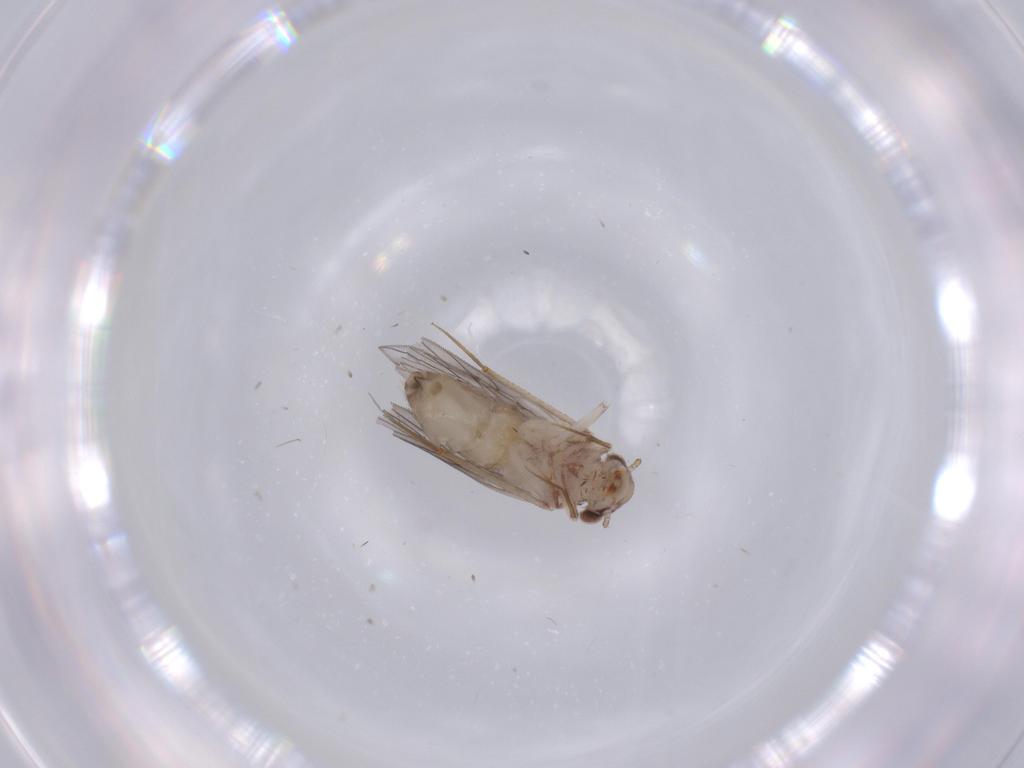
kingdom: Animalia
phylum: Arthropoda
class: Insecta
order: Psocodea
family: Lepidopsocidae
